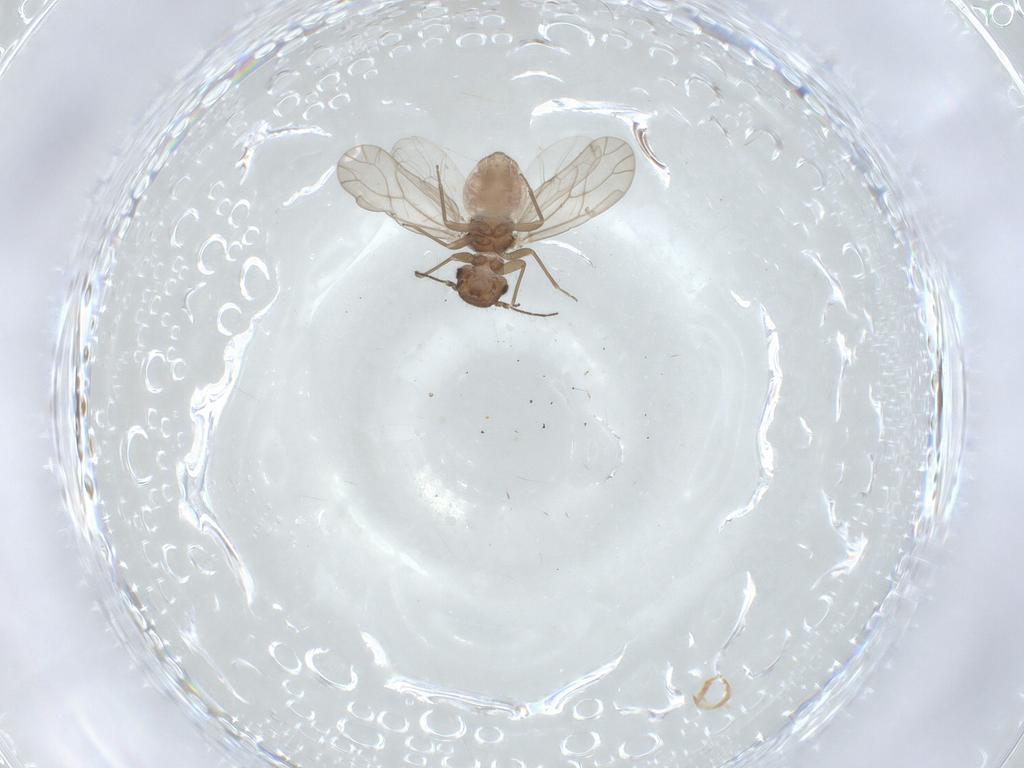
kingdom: Animalia
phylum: Arthropoda
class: Insecta
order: Psocodea
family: Ectopsocidae
